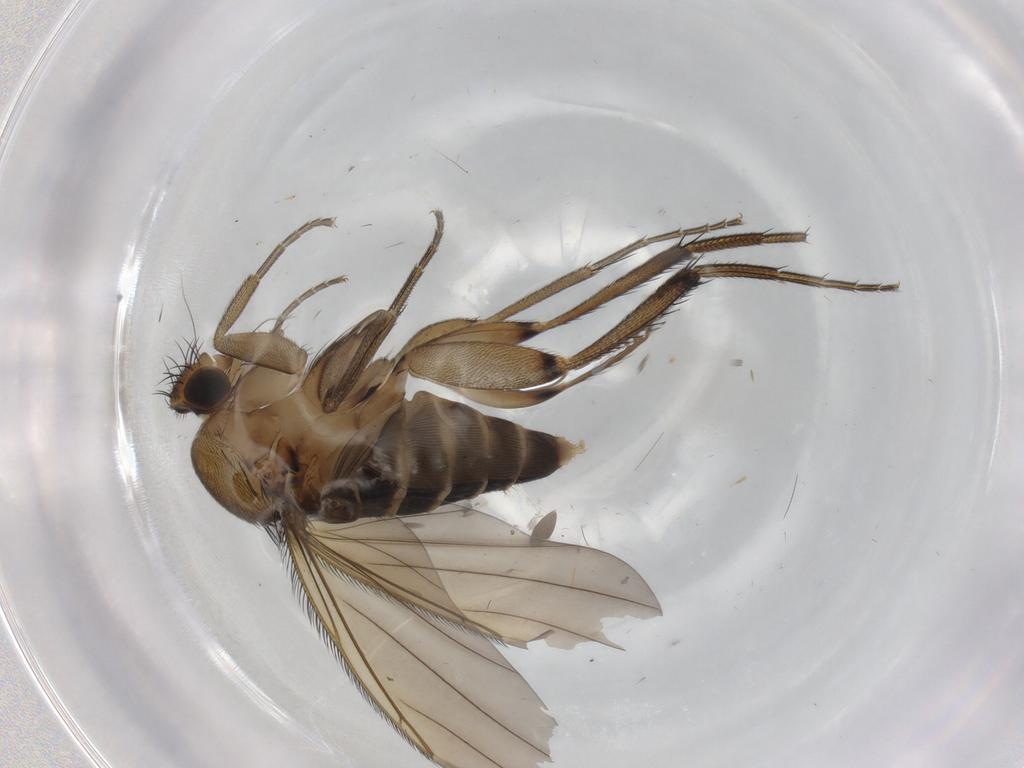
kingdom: Animalia
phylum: Arthropoda
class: Insecta
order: Diptera
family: Phoridae
